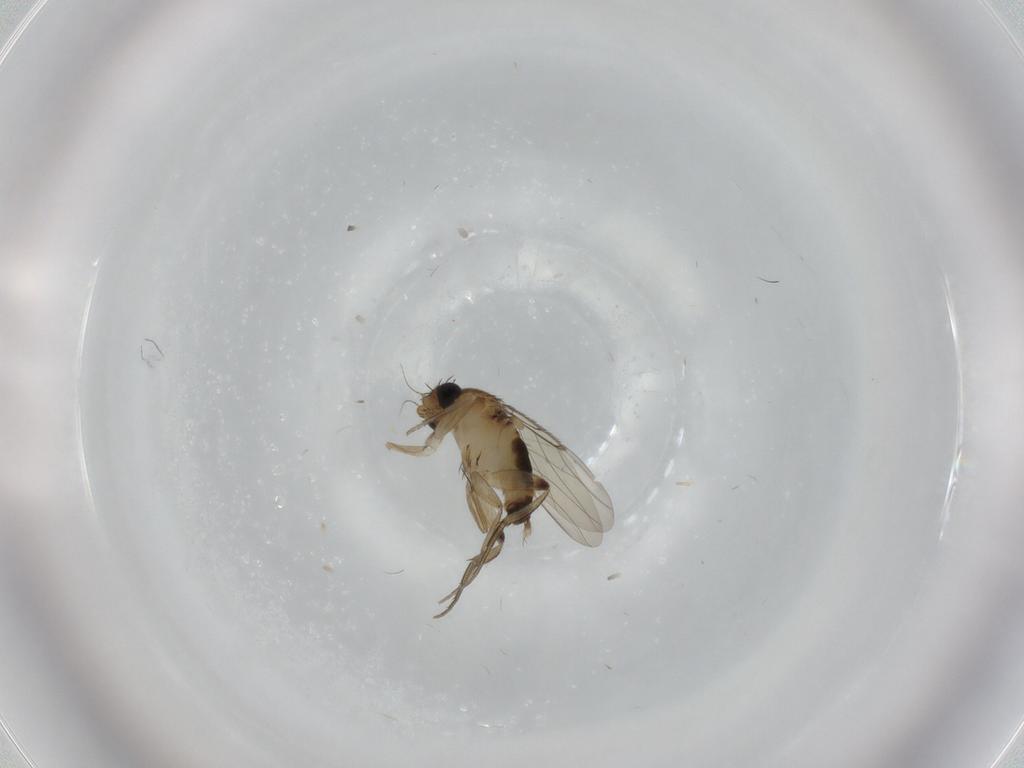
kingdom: Animalia
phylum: Arthropoda
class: Insecta
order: Diptera
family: Phoridae
